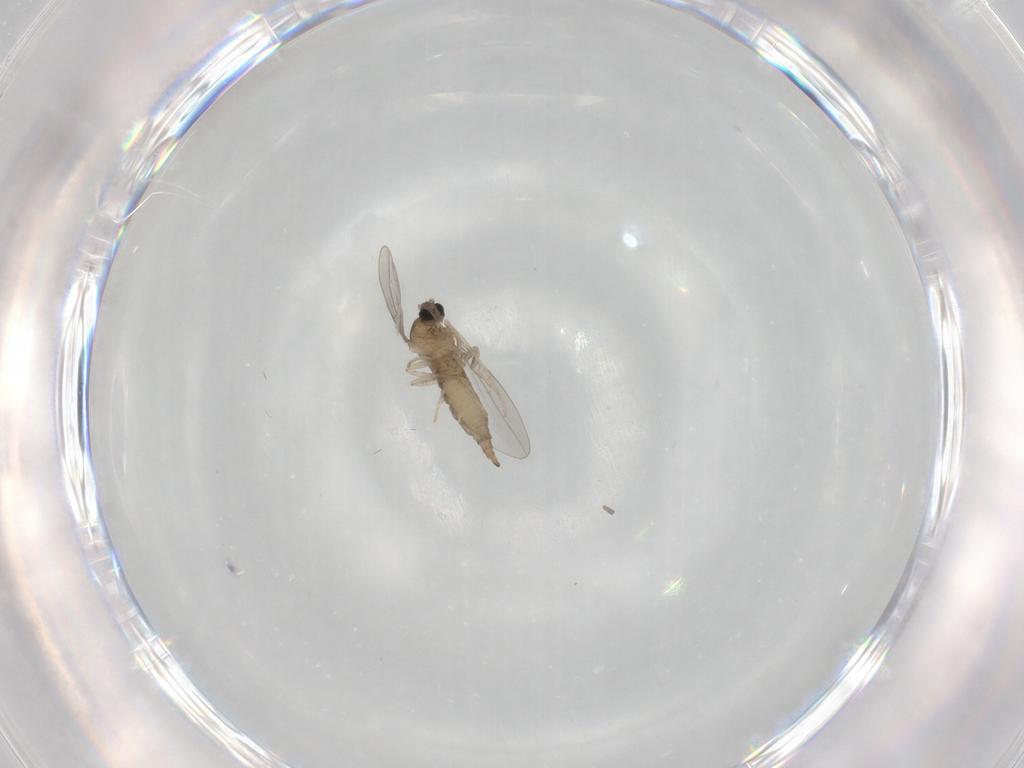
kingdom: Animalia
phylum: Arthropoda
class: Insecta
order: Diptera
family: Cecidomyiidae
